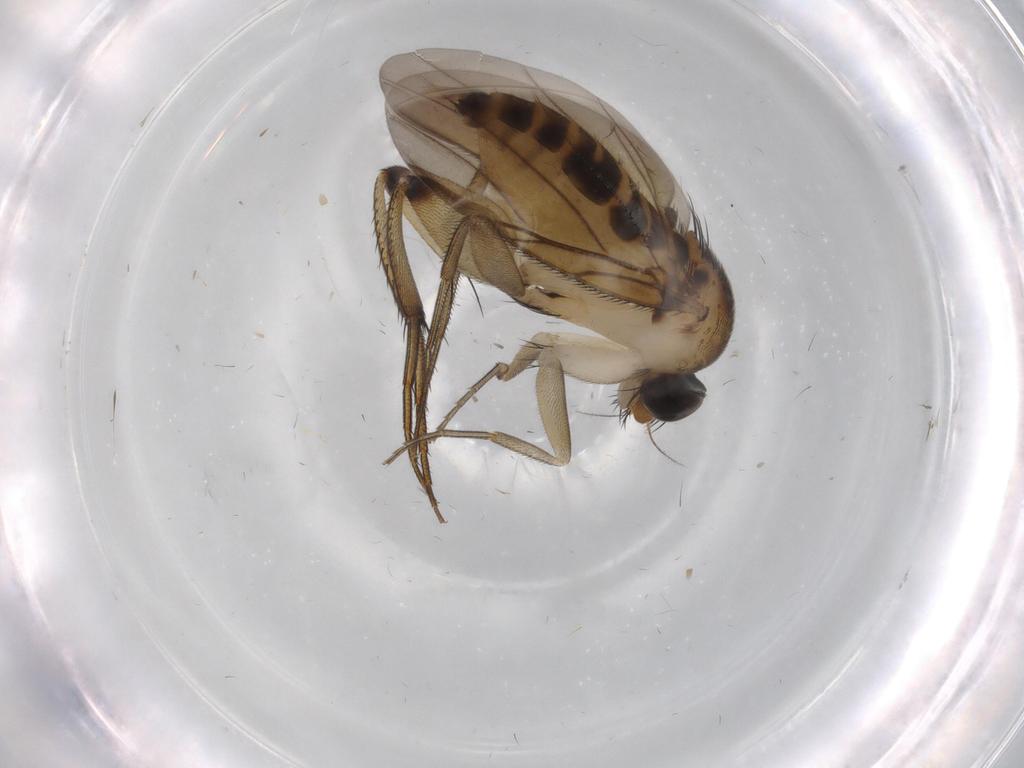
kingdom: Animalia
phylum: Arthropoda
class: Insecta
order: Diptera
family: Phoridae
